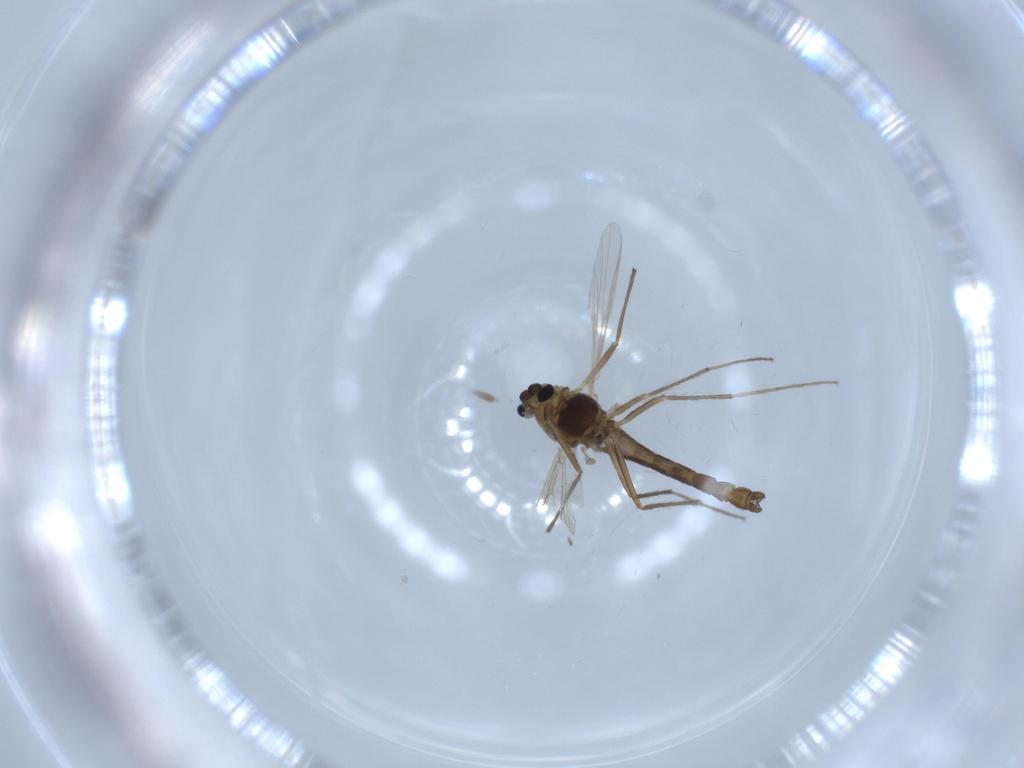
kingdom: Animalia
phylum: Arthropoda
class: Insecta
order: Diptera
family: Chironomidae
